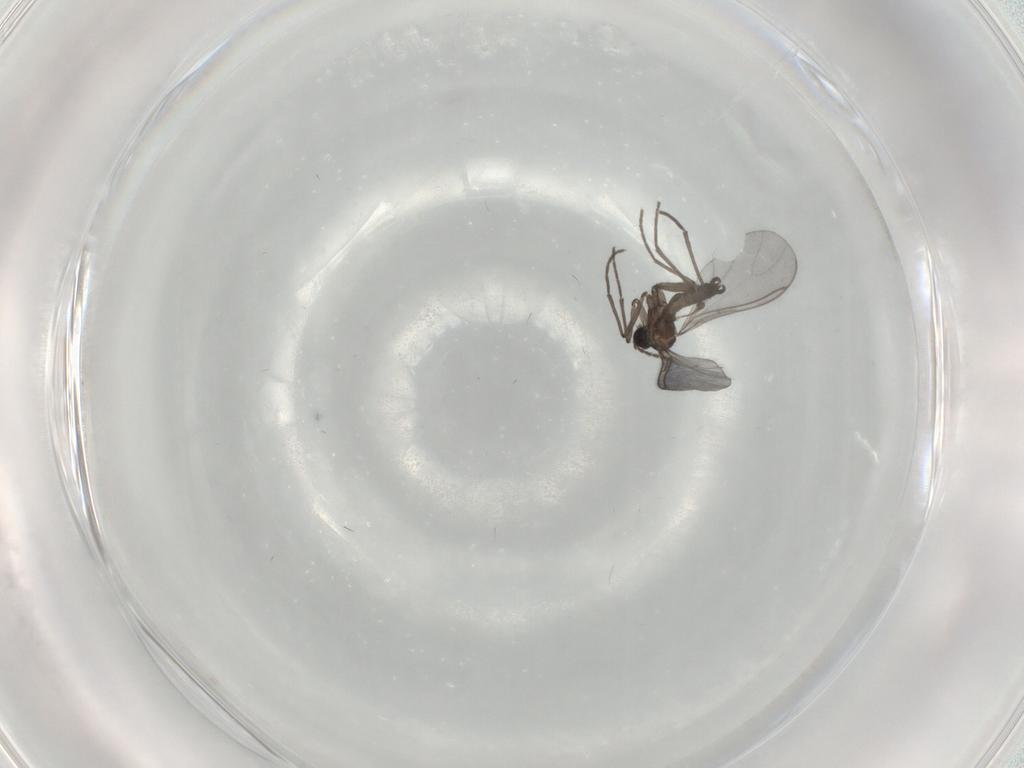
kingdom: Animalia
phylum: Arthropoda
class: Insecta
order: Diptera
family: Sciaridae
